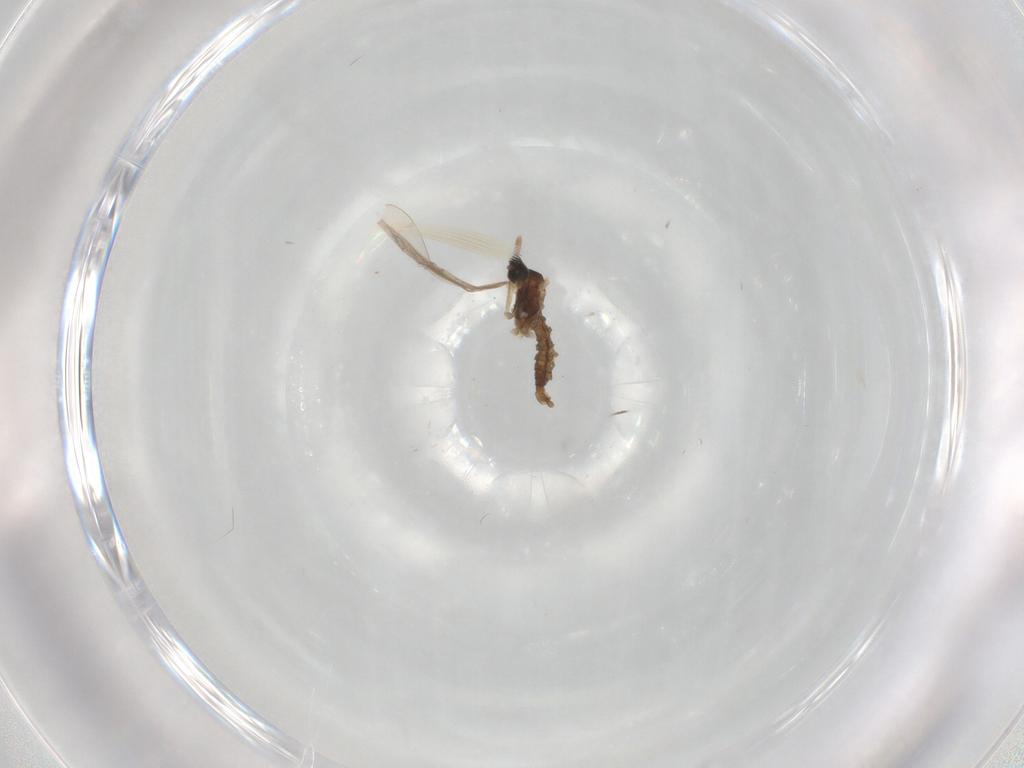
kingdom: Animalia
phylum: Arthropoda
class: Insecta
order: Diptera
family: Cecidomyiidae
